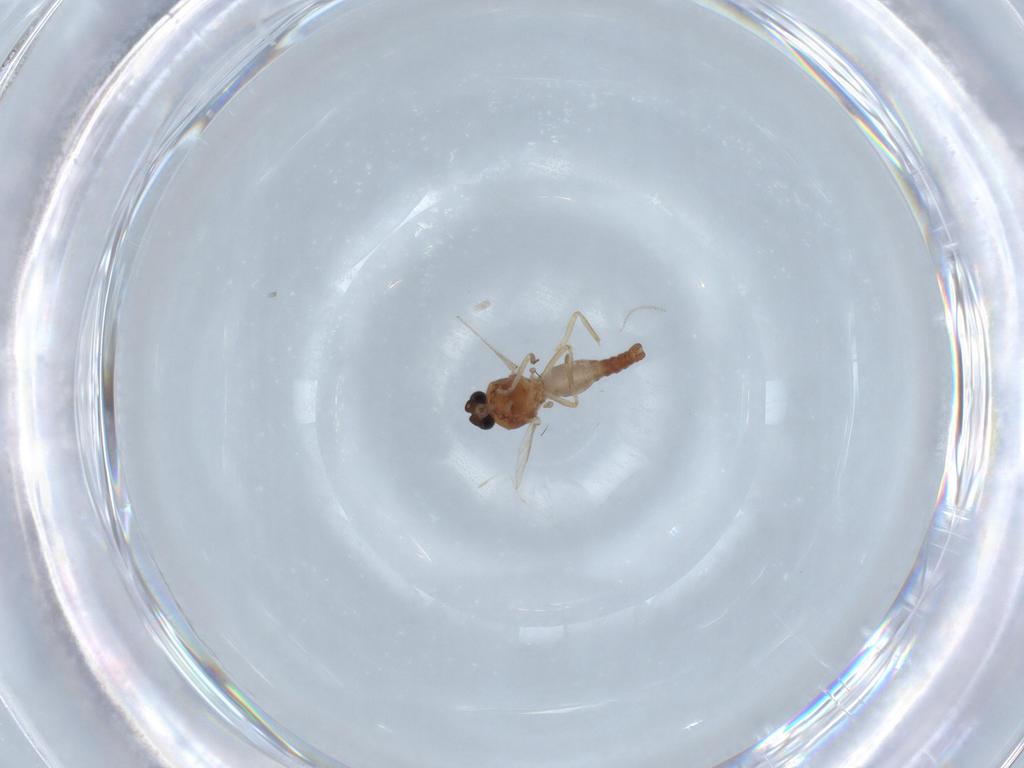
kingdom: Animalia
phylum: Arthropoda
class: Insecta
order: Diptera
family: Ceratopogonidae
